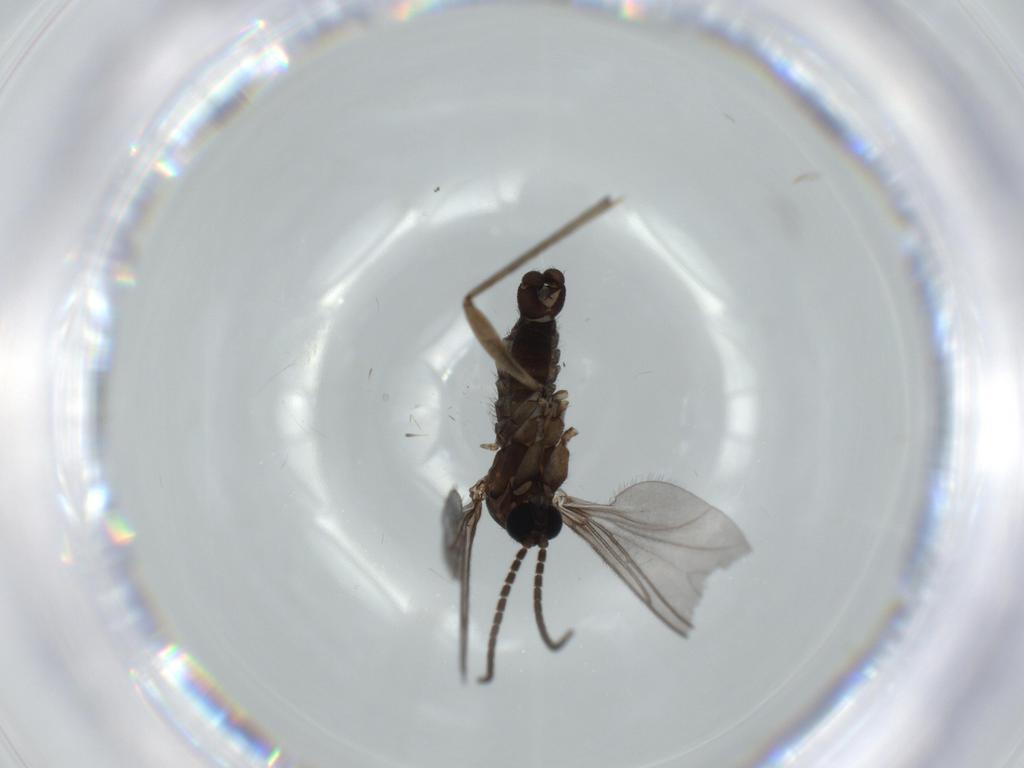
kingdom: Animalia
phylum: Arthropoda
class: Insecta
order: Diptera
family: Sciaridae
